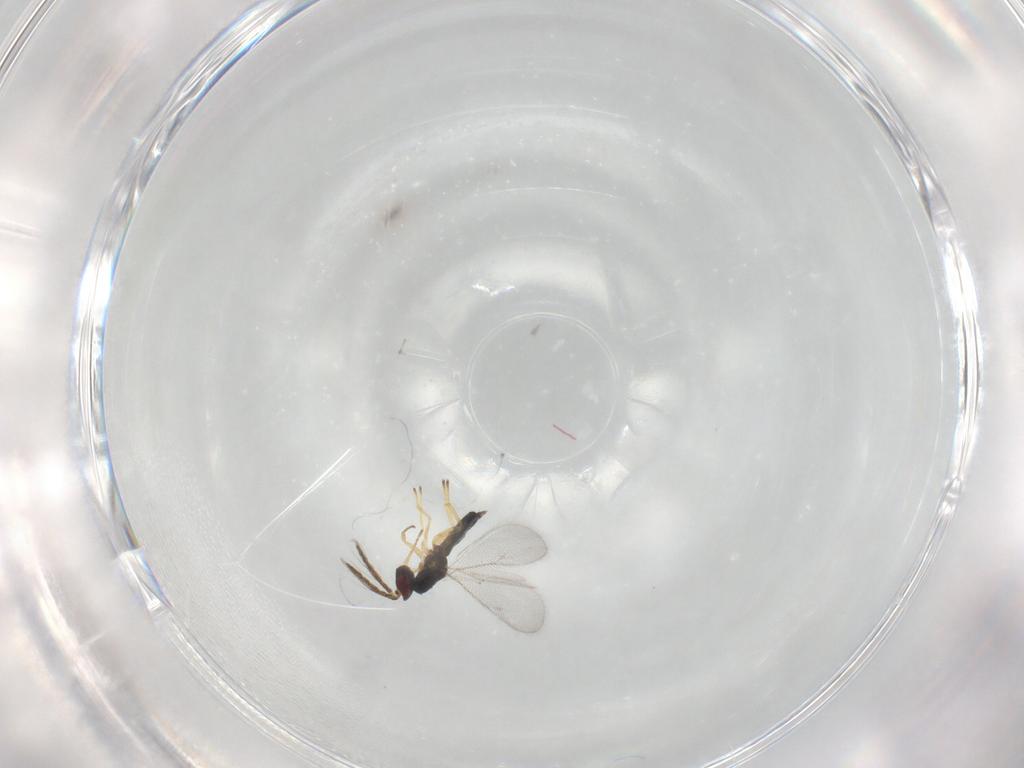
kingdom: Animalia
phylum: Arthropoda
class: Insecta
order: Hymenoptera
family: Eulophidae
